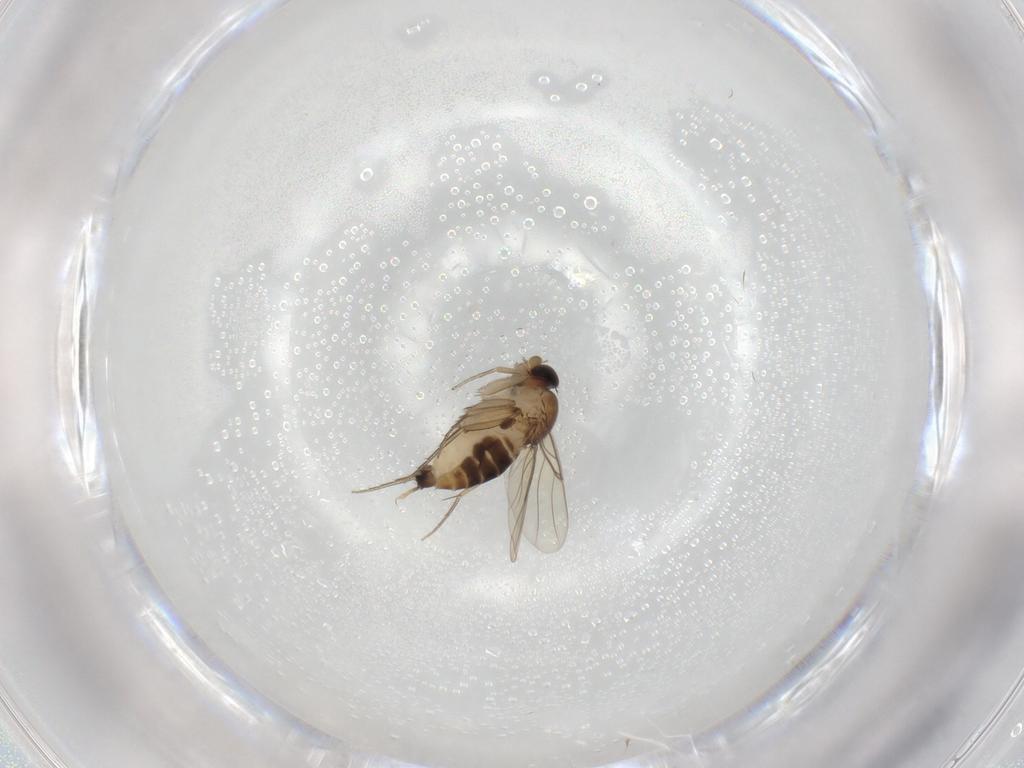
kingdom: Animalia
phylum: Arthropoda
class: Insecta
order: Diptera
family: Phoridae
